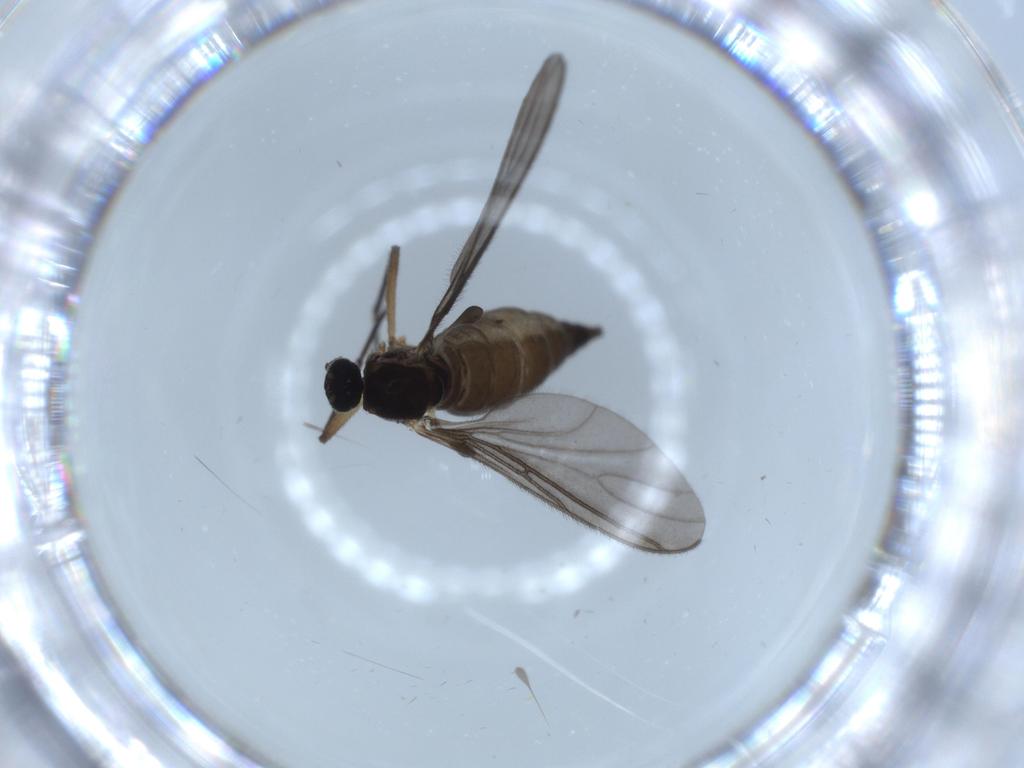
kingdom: Animalia
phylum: Arthropoda
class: Insecta
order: Diptera
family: Sciaridae
